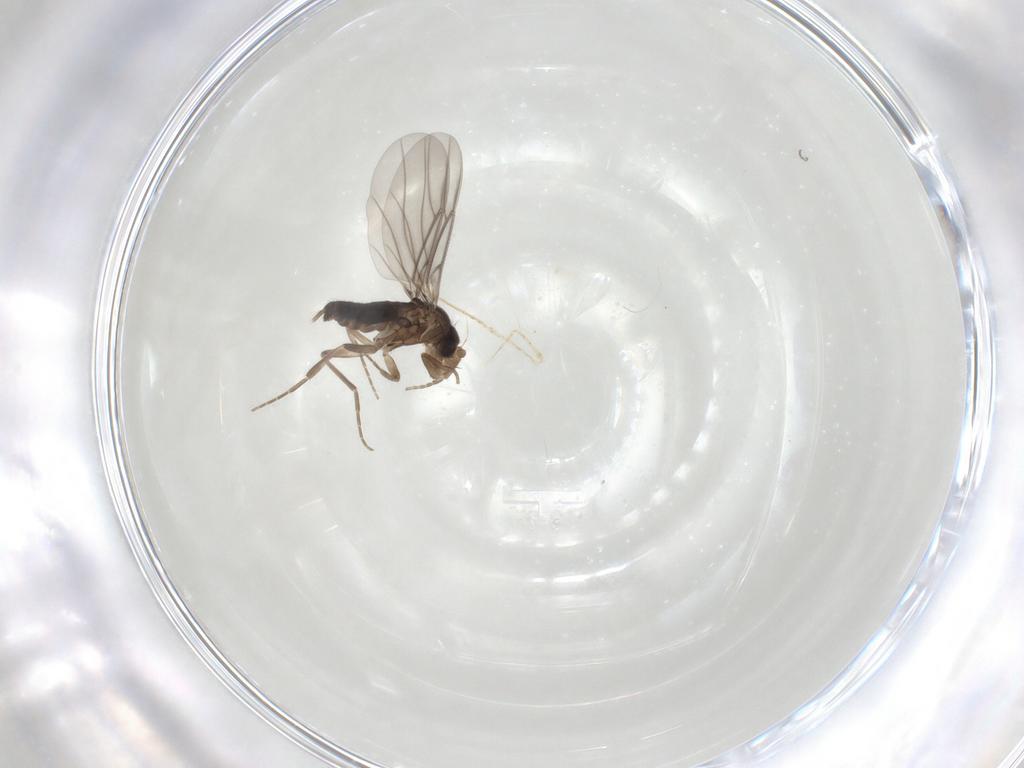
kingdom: Animalia
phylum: Arthropoda
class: Insecta
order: Diptera
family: Phoridae
